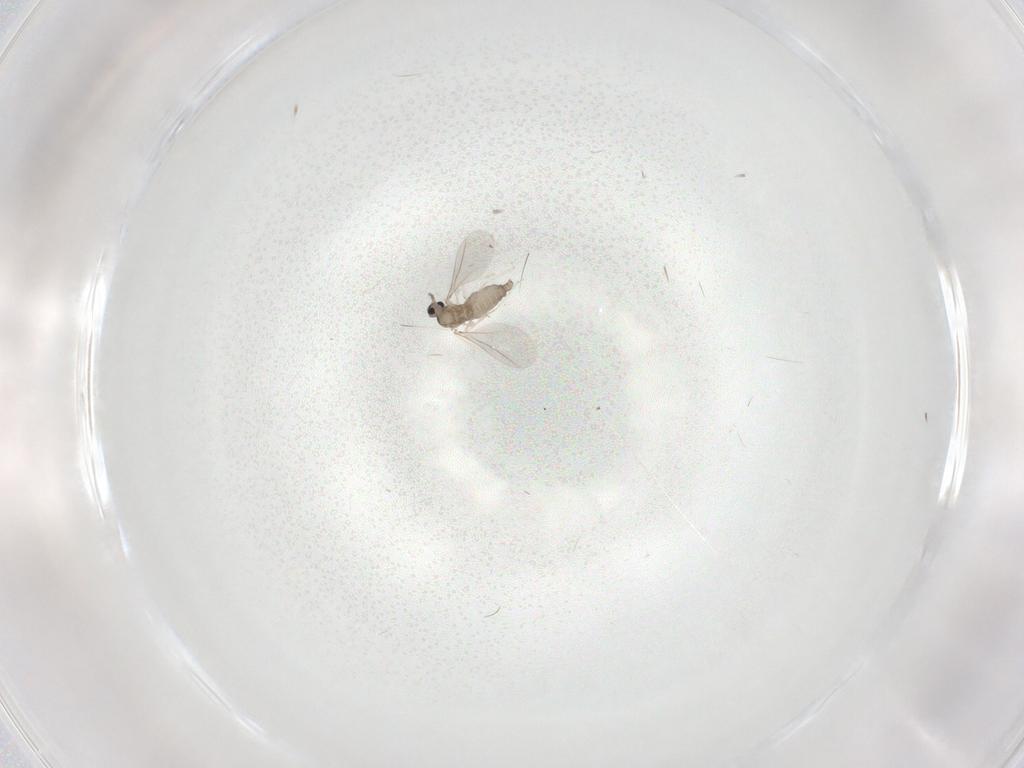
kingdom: Animalia
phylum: Arthropoda
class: Insecta
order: Diptera
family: Cecidomyiidae
